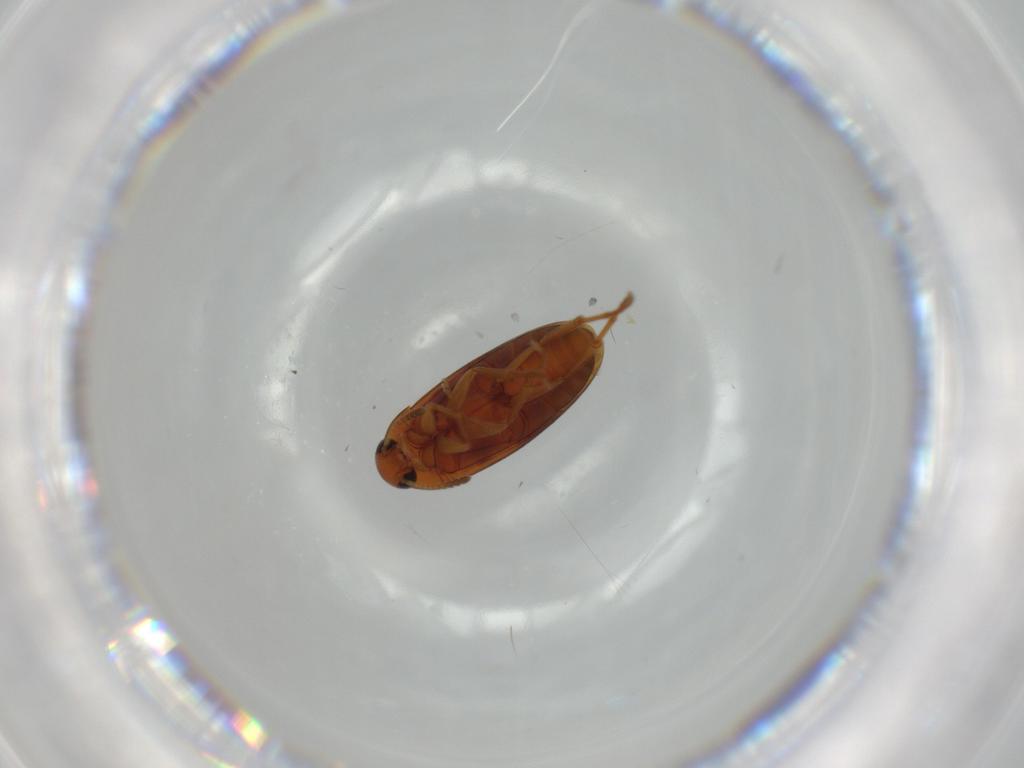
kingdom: Animalia
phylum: Arthropoda
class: Insecta
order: Coleoptera
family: Scraptiidae
